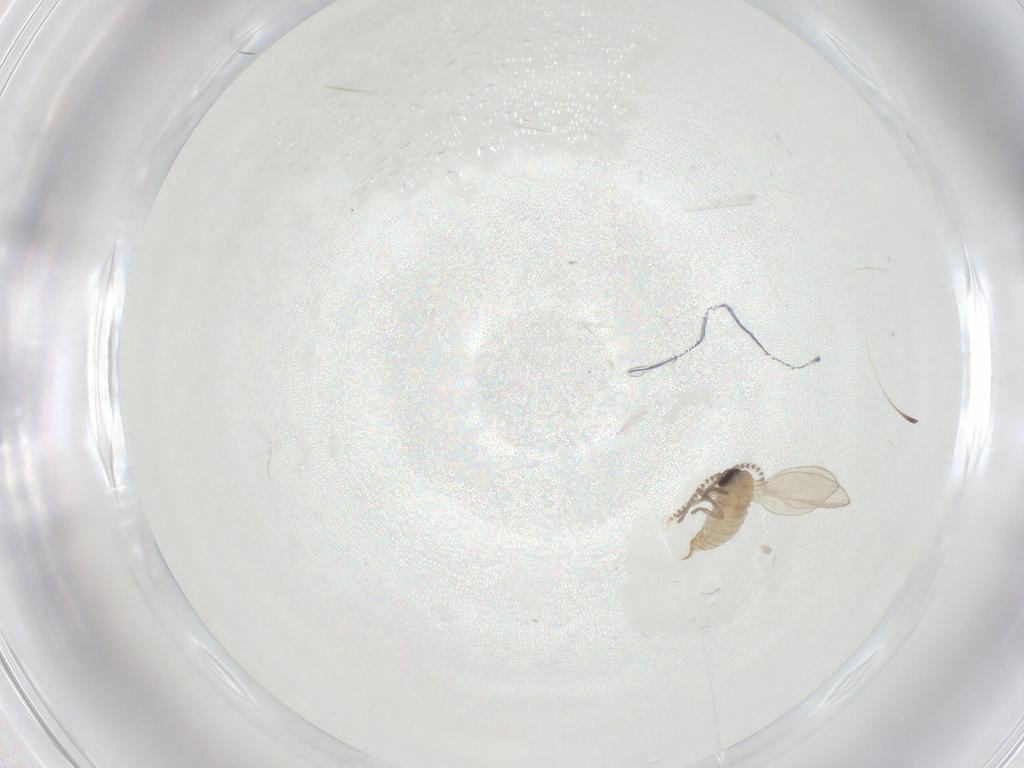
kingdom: Animalia
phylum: Arthropoda
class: Insecta
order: Diptera
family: Psychodidae
